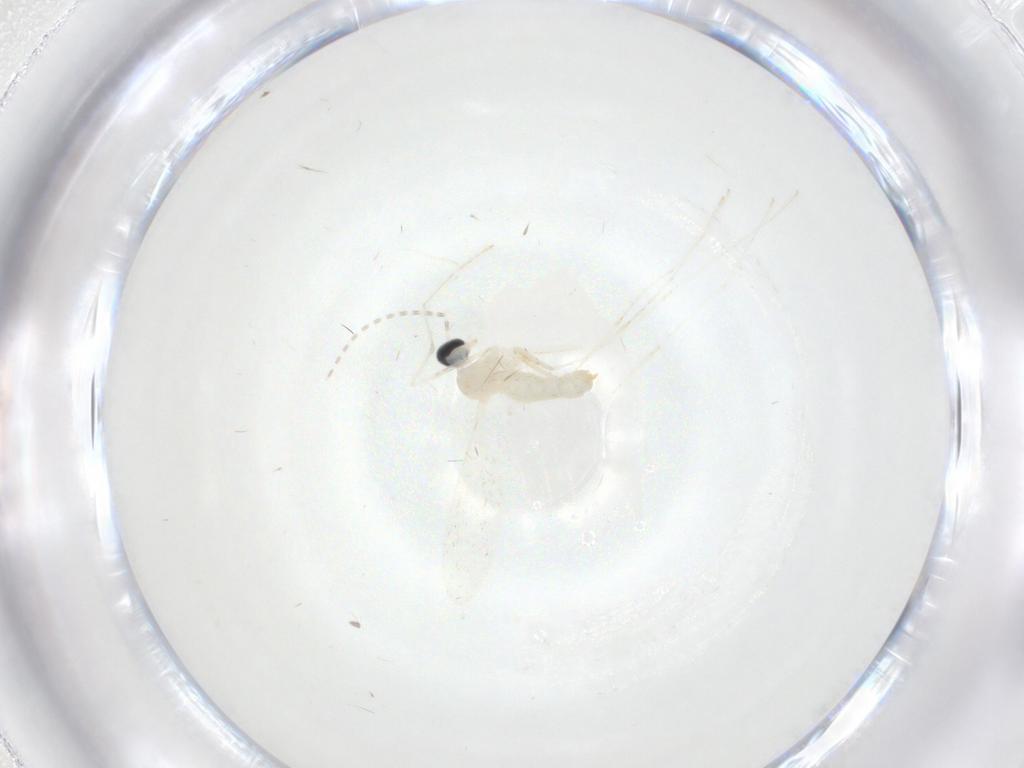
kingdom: Animalia
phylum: Arthropoda
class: Insecta
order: Diptera
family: Cecidomyiidae
